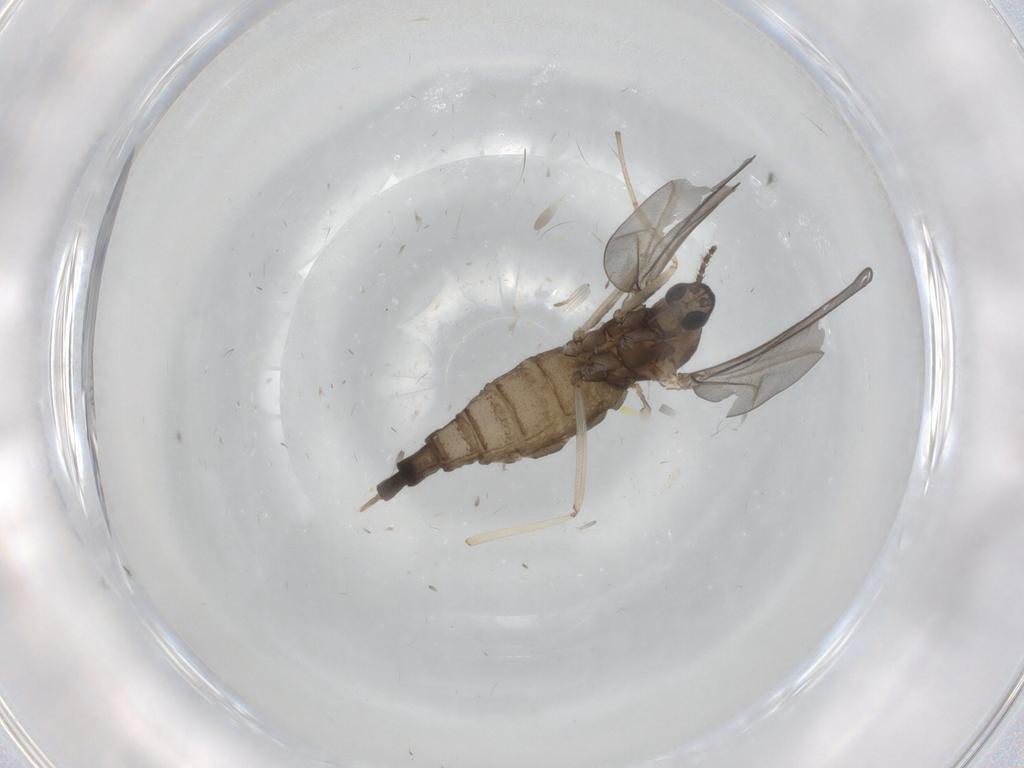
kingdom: Animalia
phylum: Arthropoda
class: Insecta
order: Diptera
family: Cecidomyiidae
